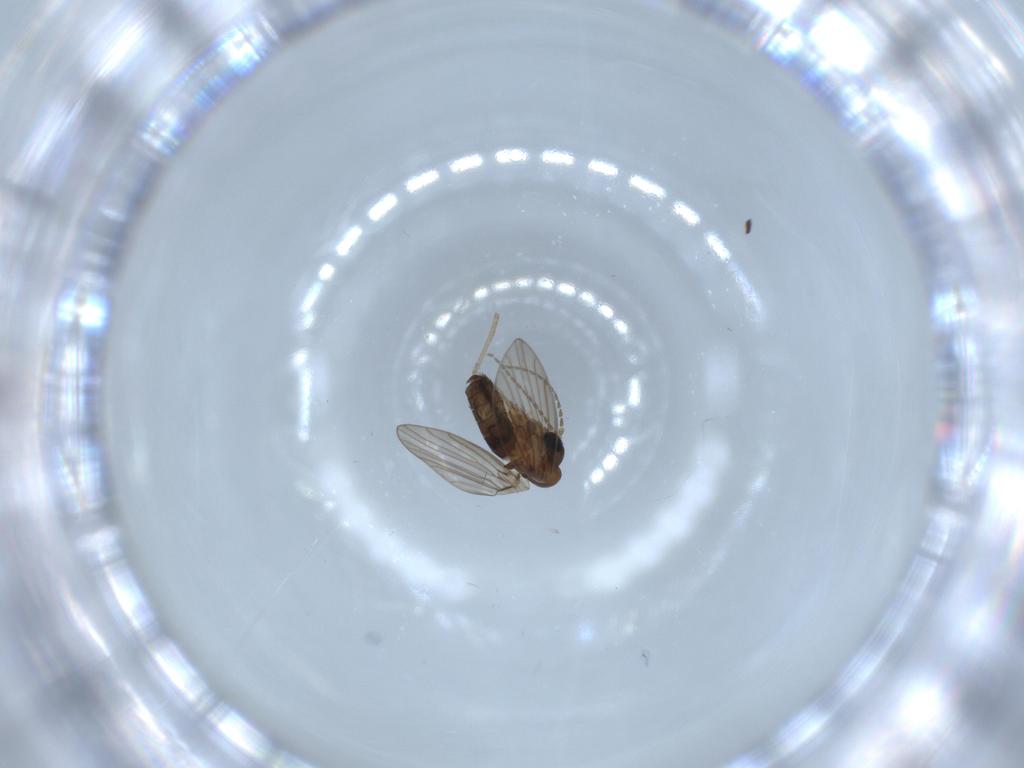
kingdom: Animalia
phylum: Arthropoda
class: Insecta
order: Diptera
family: Psychodidae
